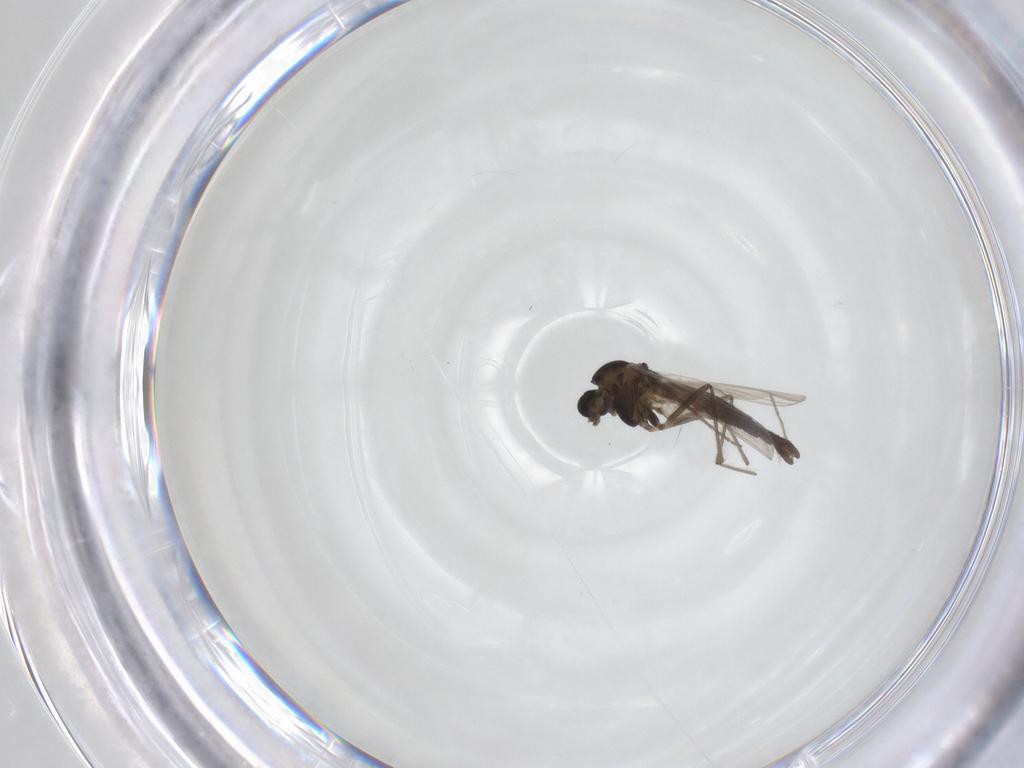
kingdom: Animalia
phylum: Arthropoda
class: Insecta
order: Diptera
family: Chironomidae
